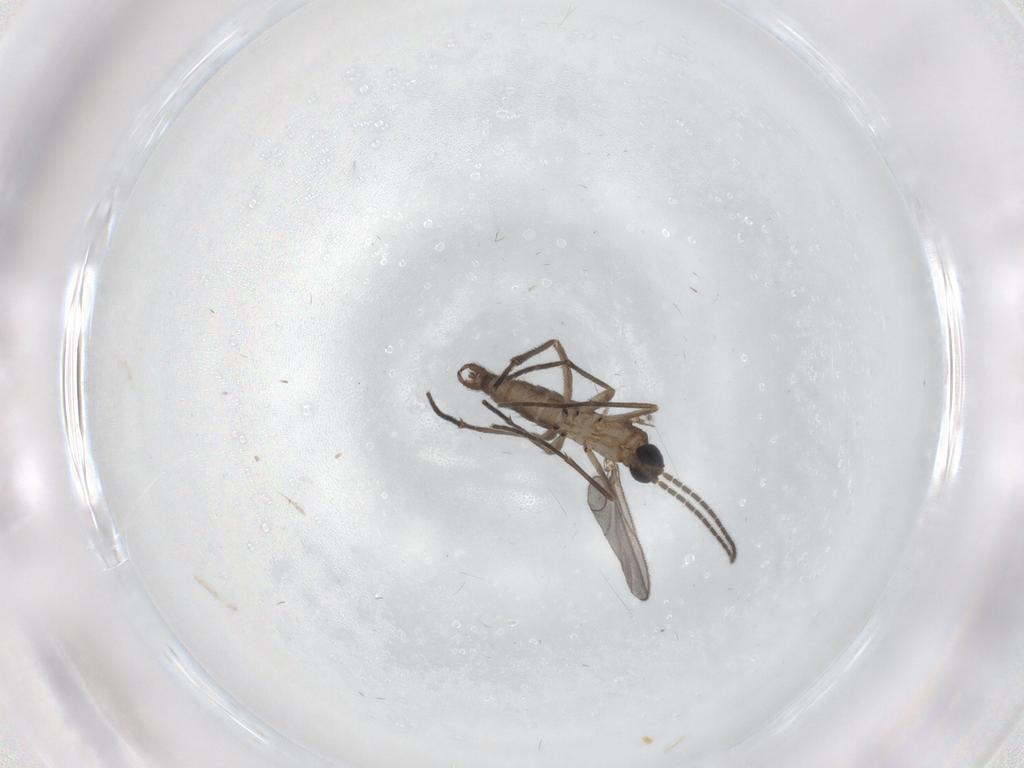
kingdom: Animalia
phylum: Arthropoda
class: Insecta
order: Diptera
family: Sciaridae
